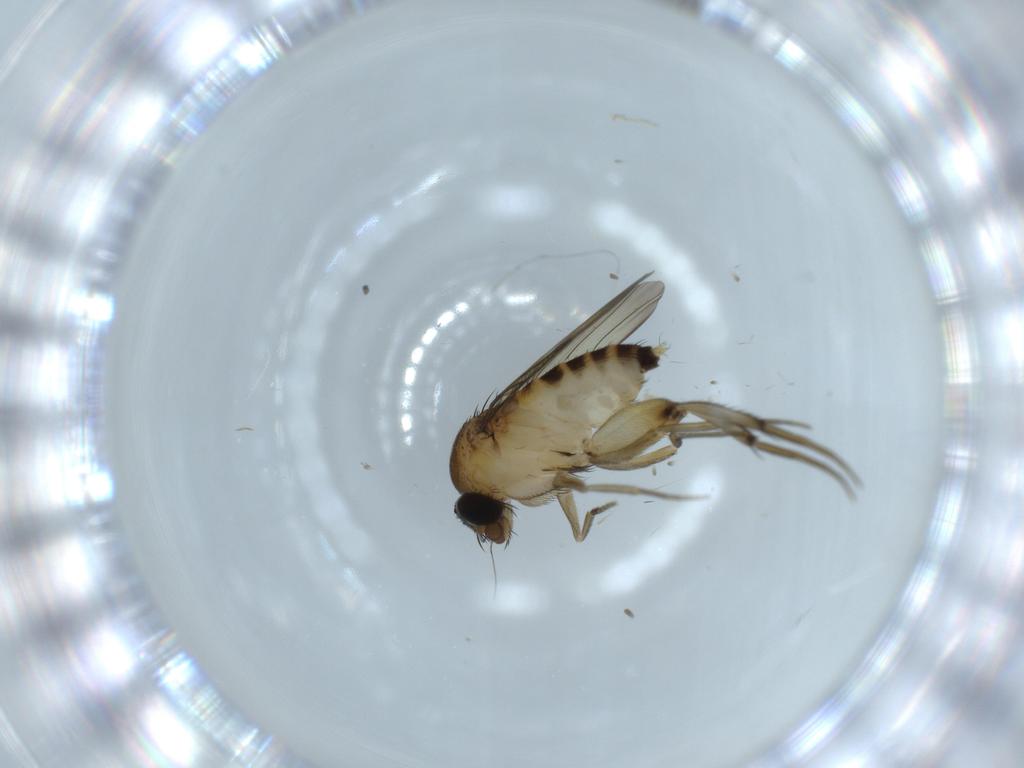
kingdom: Animalia
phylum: Arthropoda
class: Insecta
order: Diptera
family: Phoridae
